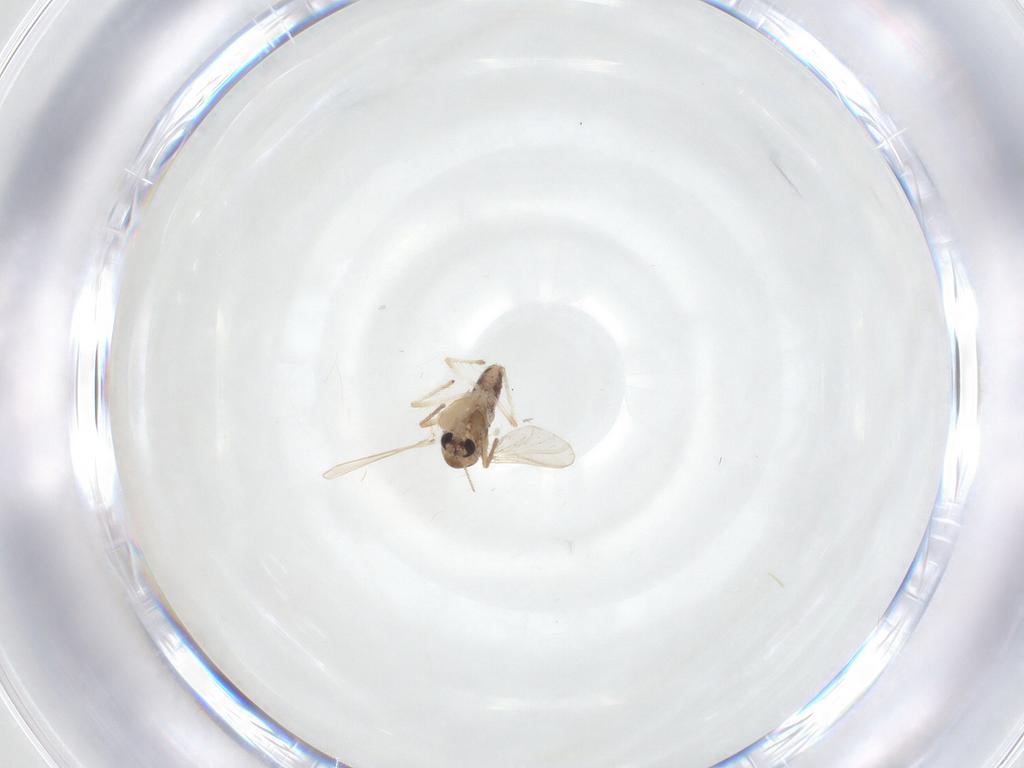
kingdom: Animalia
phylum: Arthropoda
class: Insecta
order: Diptera
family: Chironomidae
